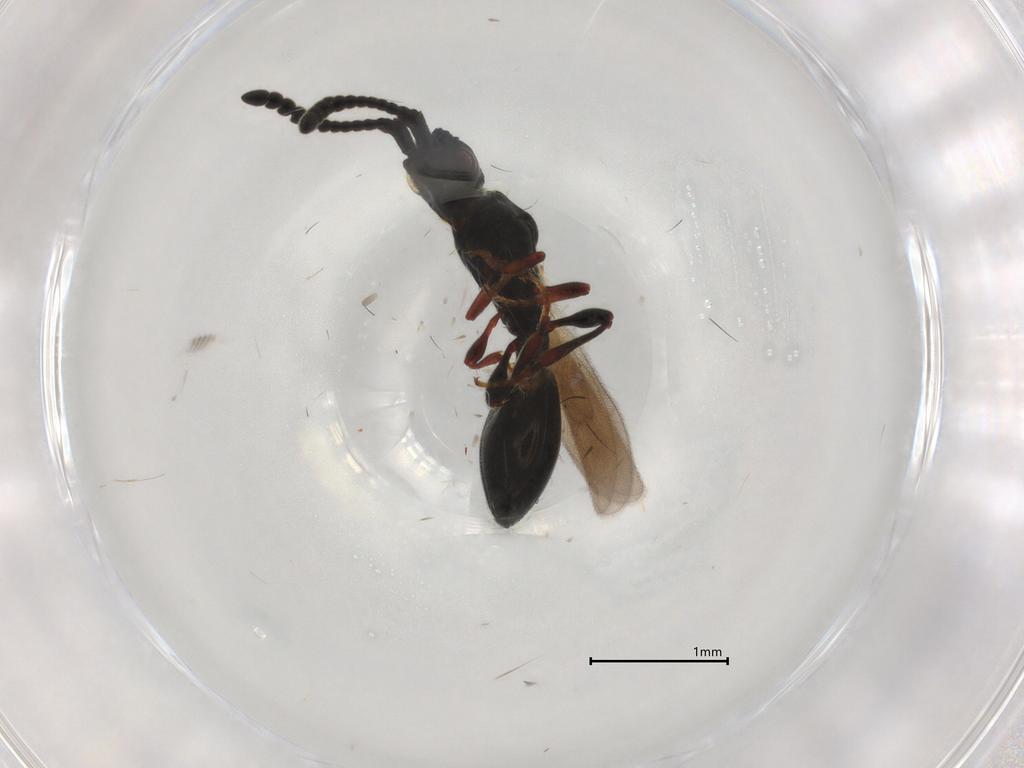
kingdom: Animalia
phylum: Arthropoda
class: Insecta
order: Hymenoptera
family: Diapriidae
